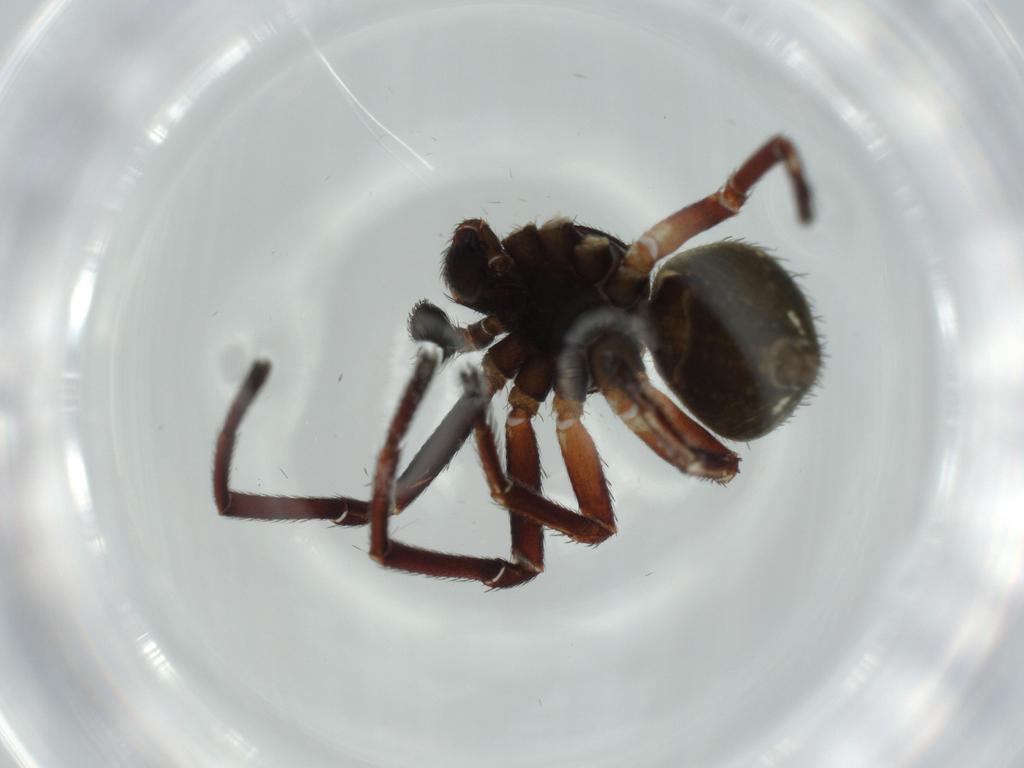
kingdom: Animalia
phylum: Arthropoda
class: Arachnida
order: Araneae
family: Thomisidae
